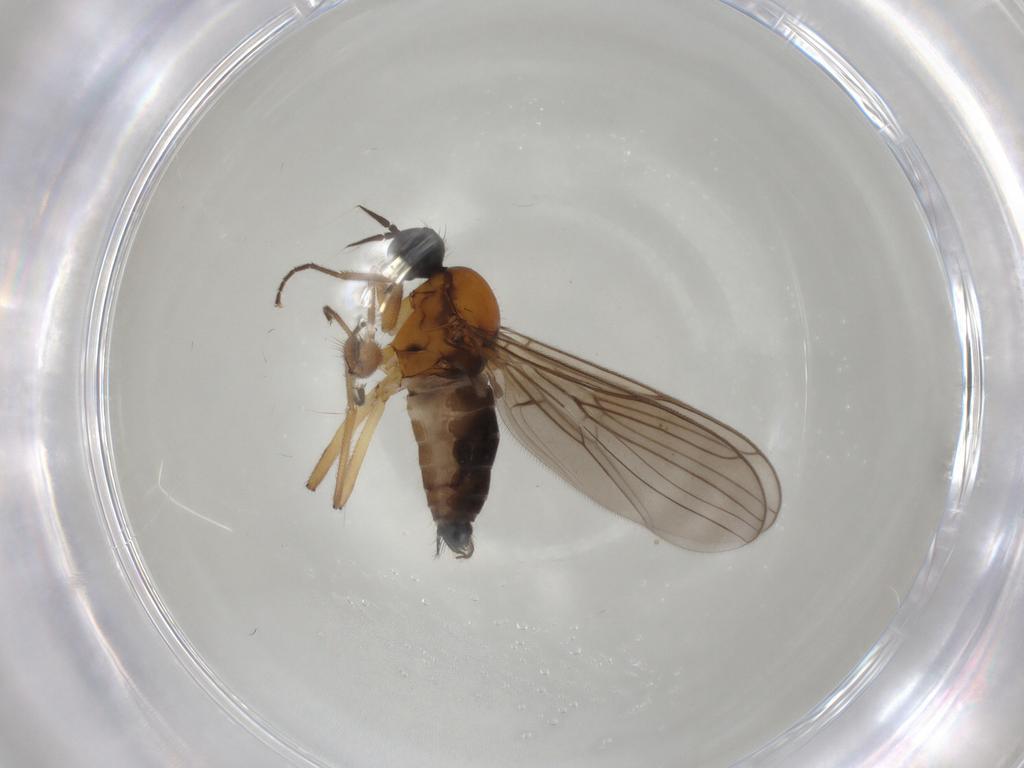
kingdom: Animalia
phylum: Arthropoda
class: Insecta
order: Diptera
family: Hybotidae
